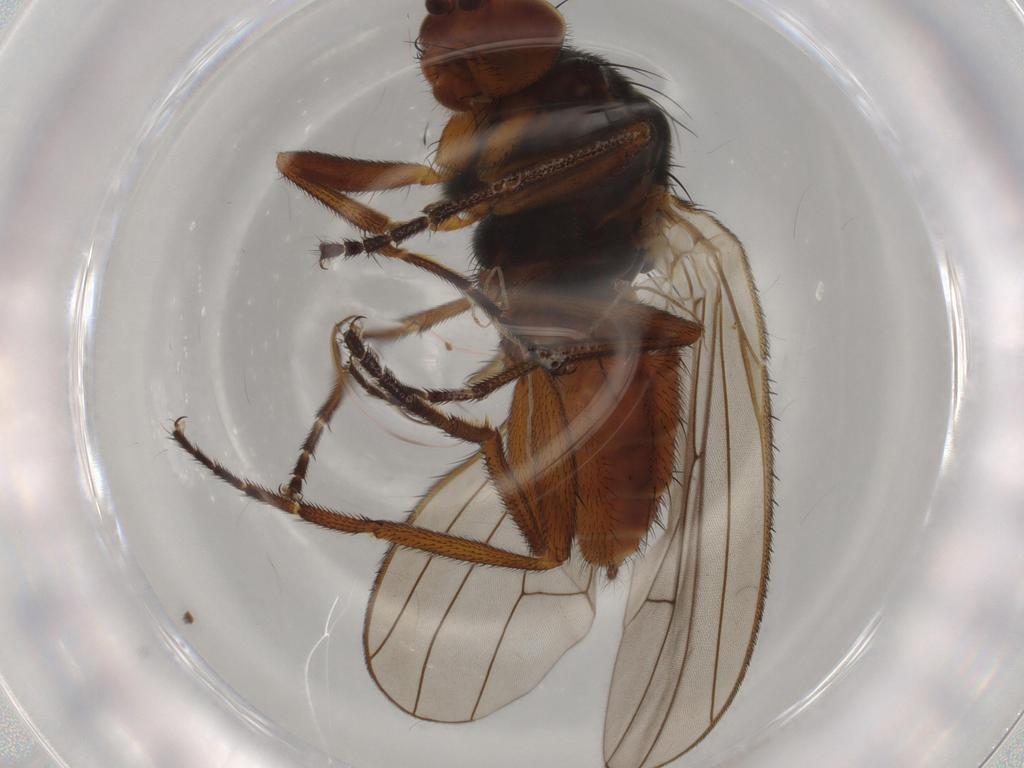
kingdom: Animalia
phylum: Arthropoda
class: Insecta
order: Diptera
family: Heleomyzidae
